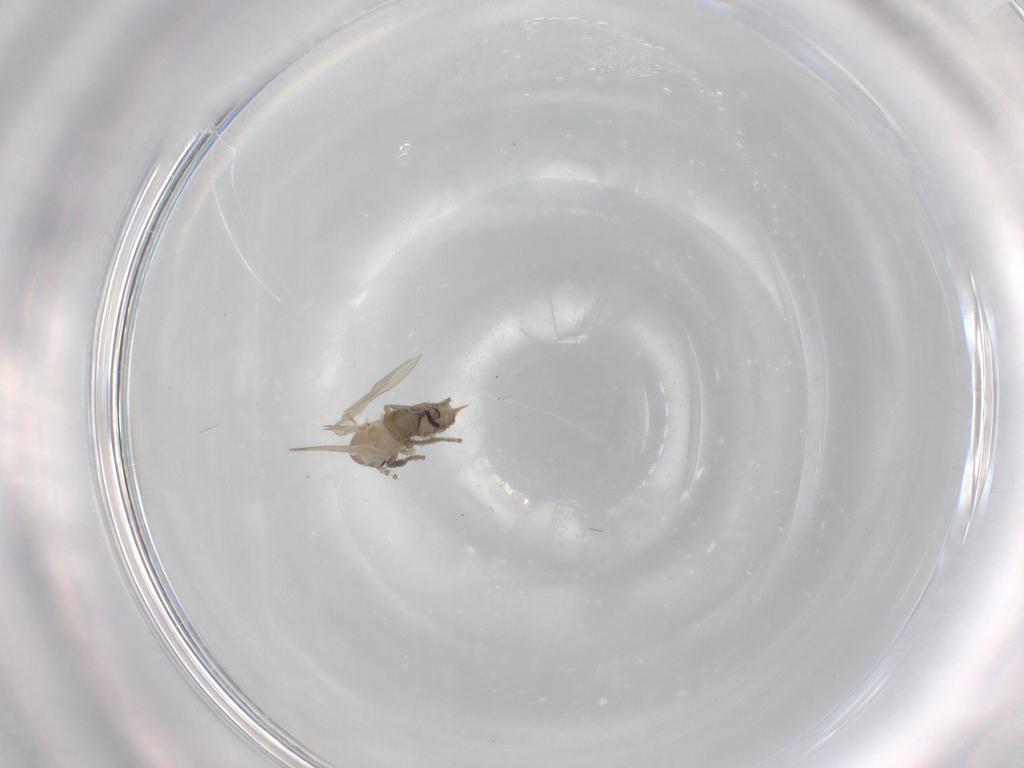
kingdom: Animalia
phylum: Arthropoda
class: Insecta
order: Diptera
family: Psychodidae
